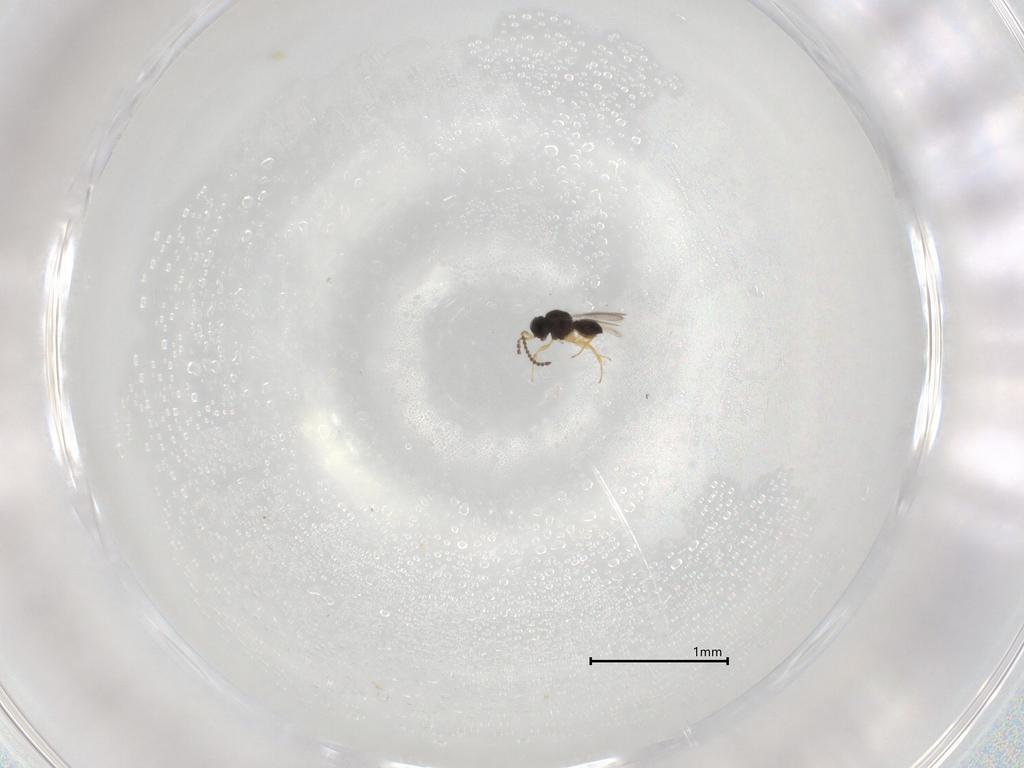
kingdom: Animalia
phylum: Arthropoda
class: Insecta
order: Hymenoptera
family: Scelionidae
